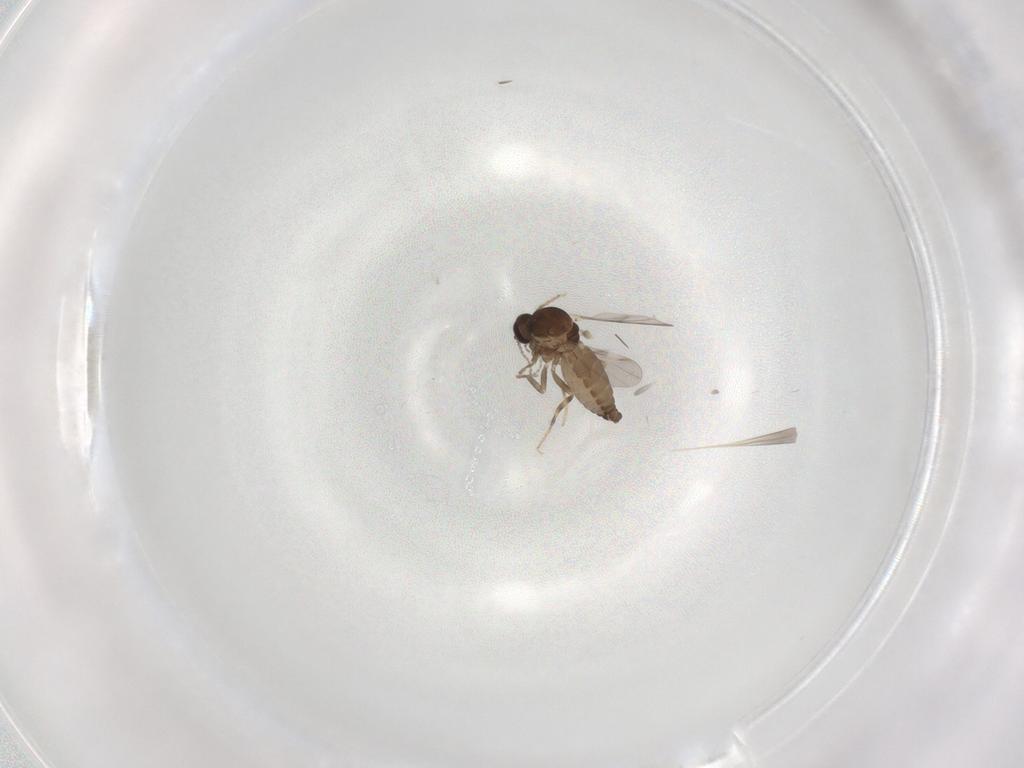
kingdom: Animalia
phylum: Arthropoda
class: Insecta
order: Diptera
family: Ceratopogonidae
